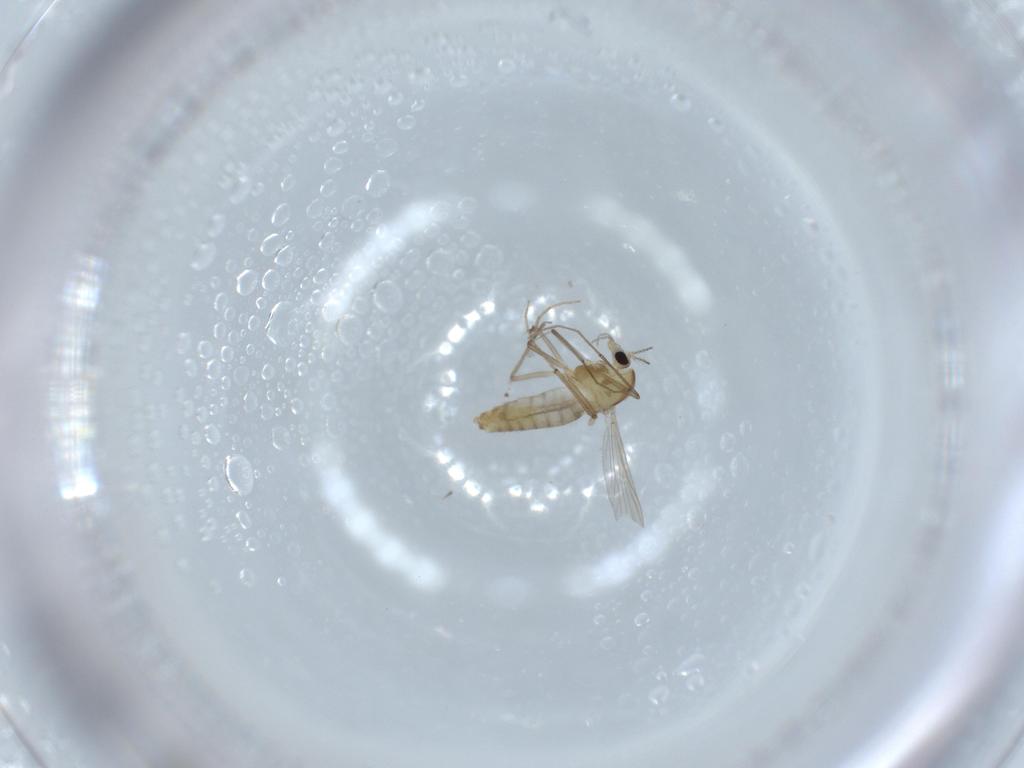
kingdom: Animalia
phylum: Arthropoda
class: Insecta
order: Diptera
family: Chironomidae
